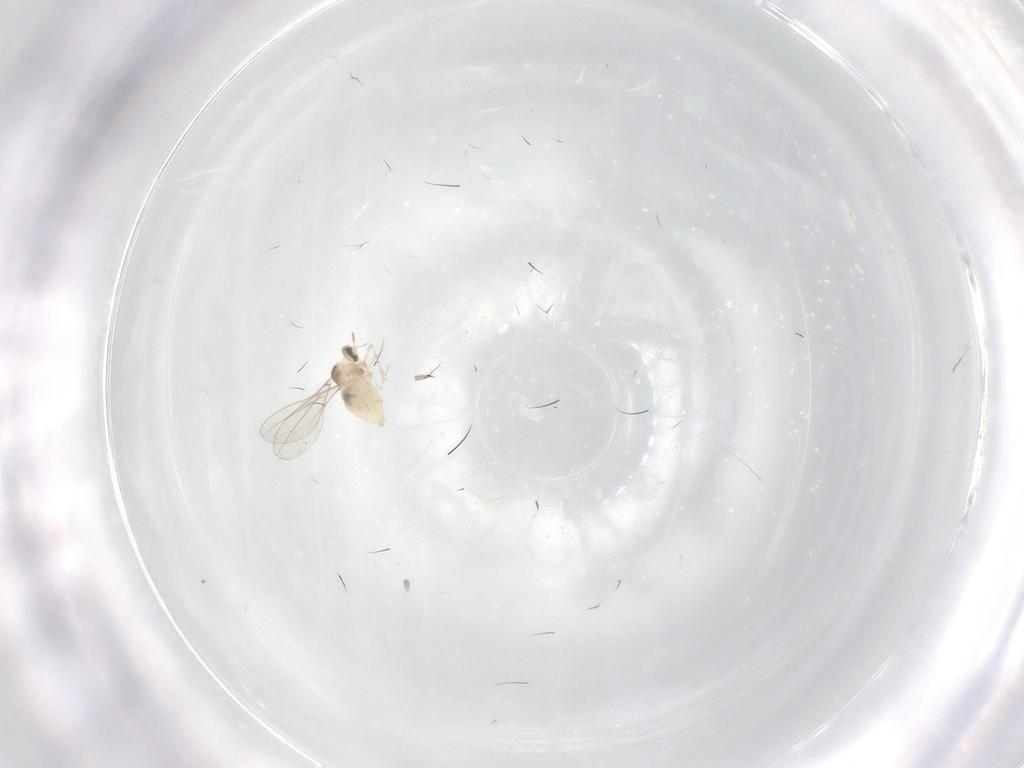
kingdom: Animalia
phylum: Arthropoda
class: Insecta
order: Diptera
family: Cecidomyiidae
